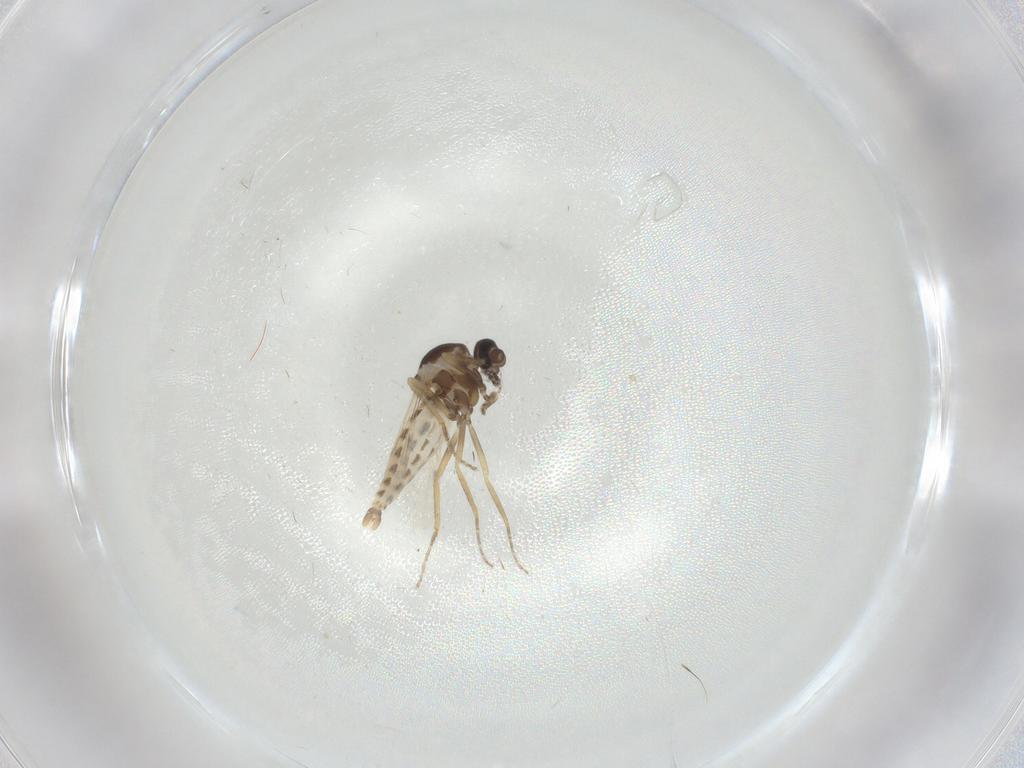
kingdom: Animalia
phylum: Arthropoda
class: Insecta
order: Diptera
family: Ceratopogonidae
